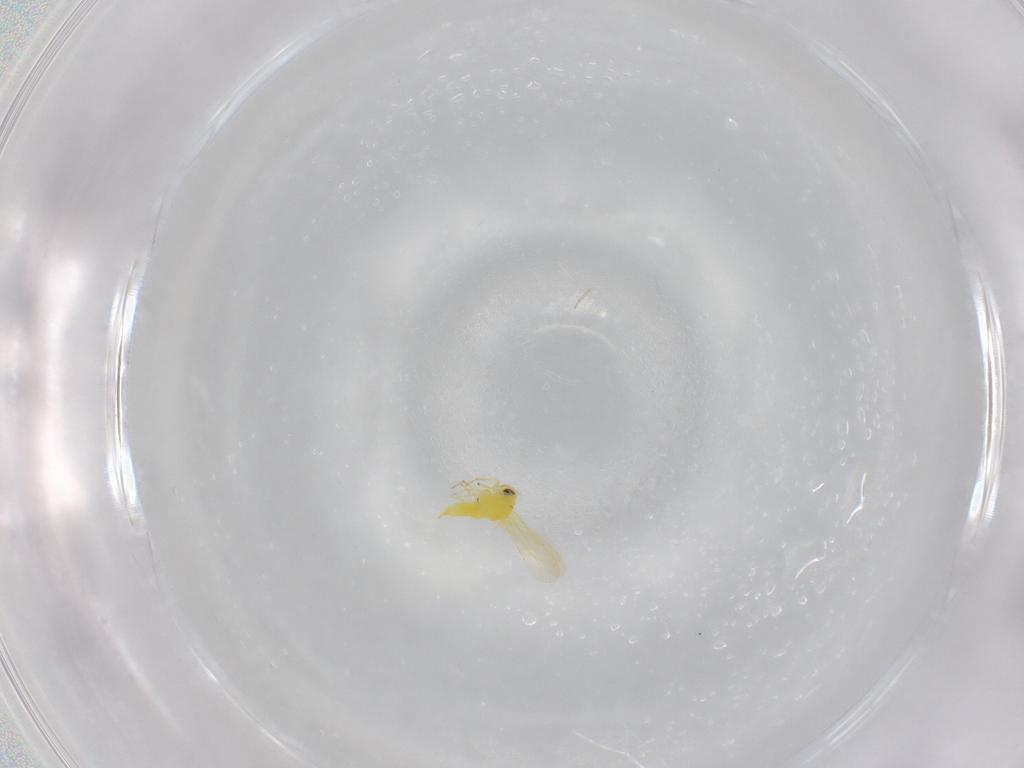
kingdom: Animalia
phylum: Arthropoda
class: Insecta
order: Hemiptera
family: Aleyrodidae
